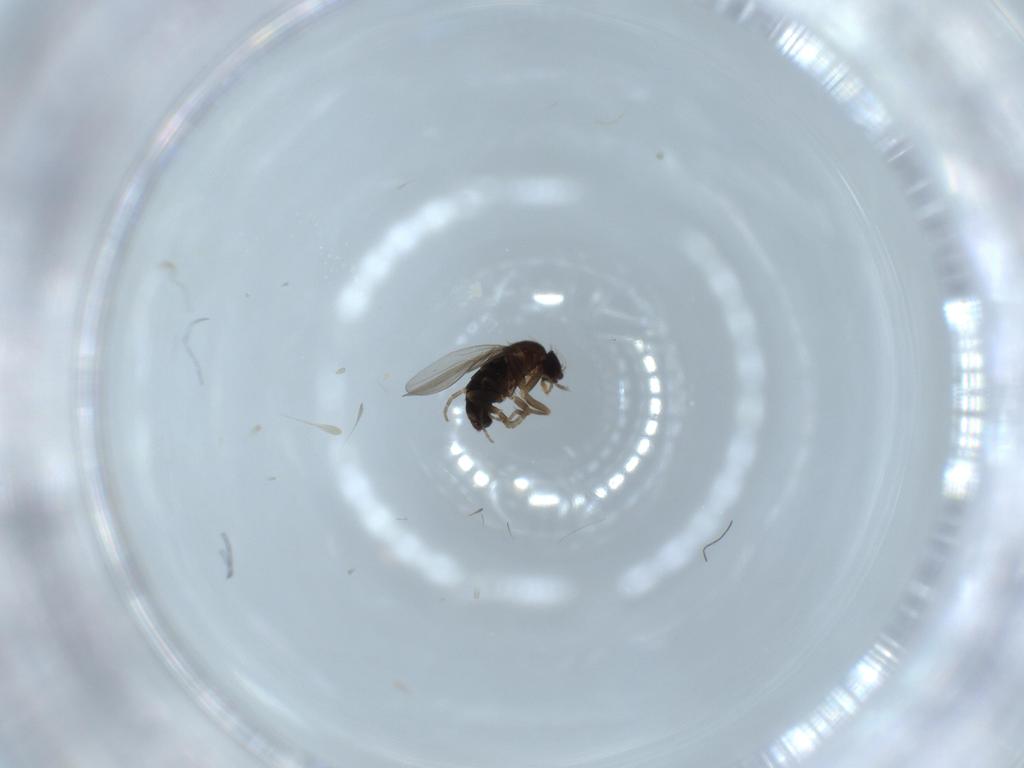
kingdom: Animalia
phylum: Arthropoda
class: Insecta
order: Diptera
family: Phoridae
